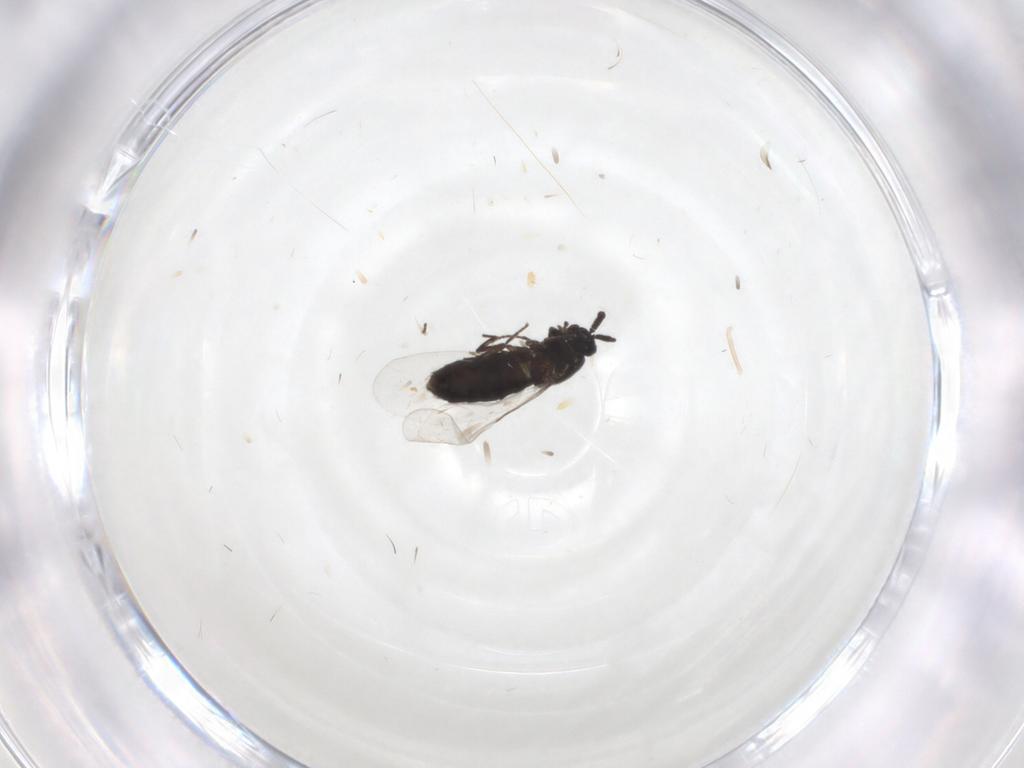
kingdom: Animalia
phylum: Arthropoda
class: Insecta
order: Diptera
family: Scatopsidae
